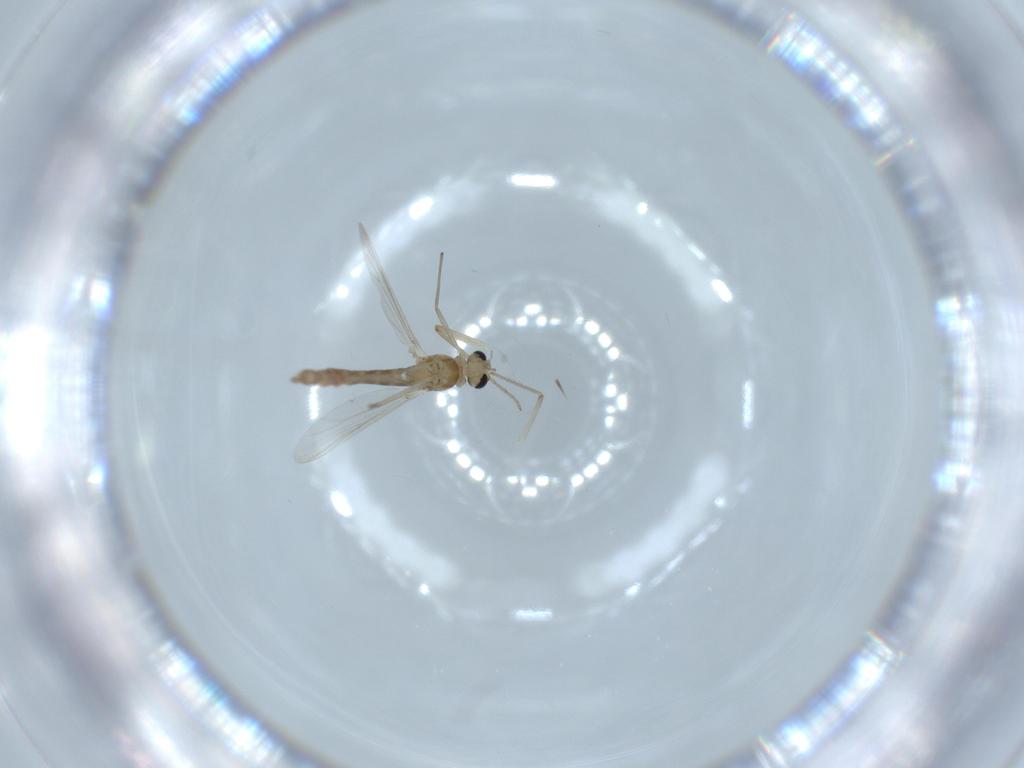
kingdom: Animalia
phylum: Arthropoda
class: Insecta
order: Diptera
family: Chironomidae
